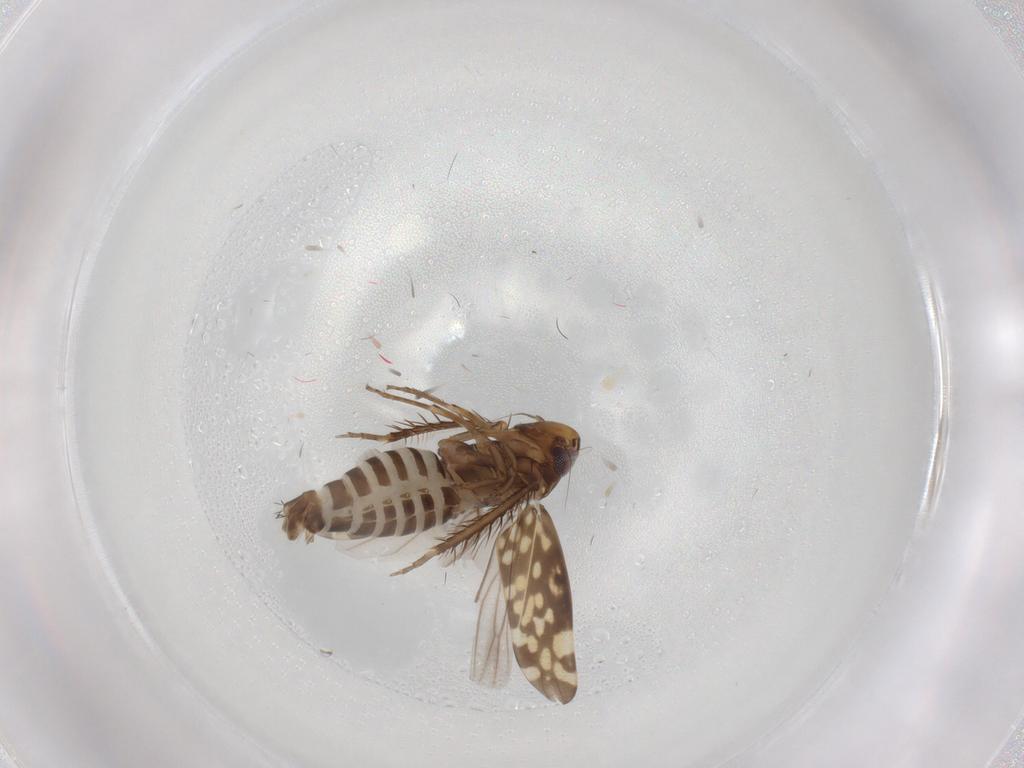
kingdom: Animalia
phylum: Arthropoda
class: Insecta
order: Hemiptera
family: Cicadellidae
